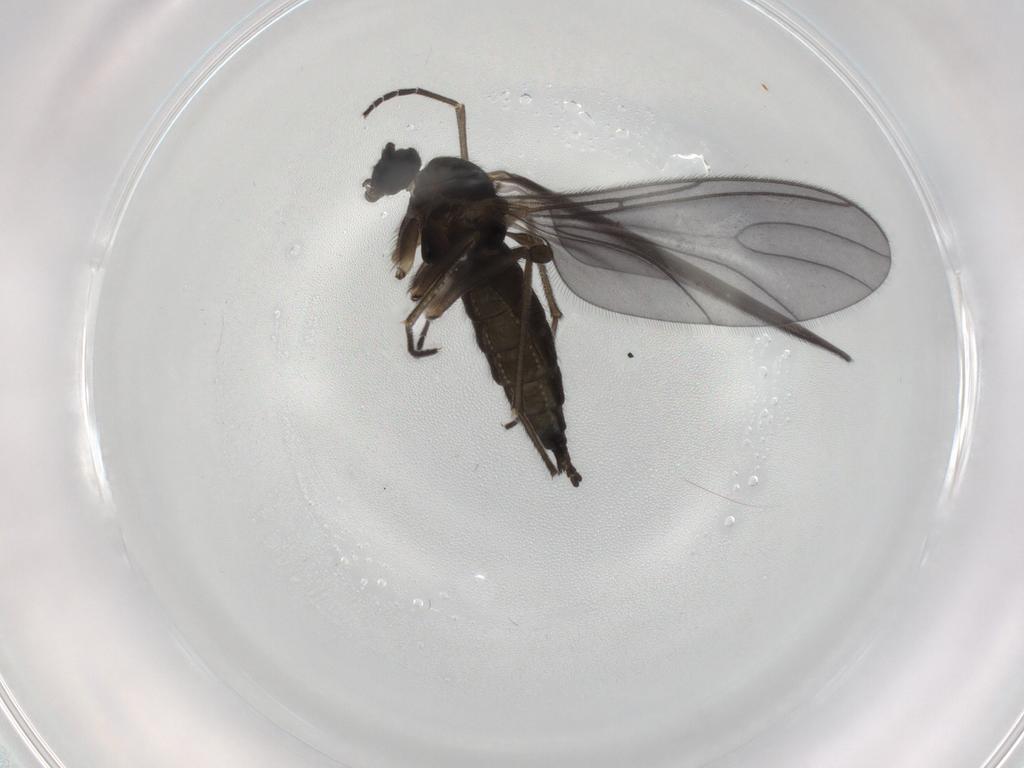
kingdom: Animalia
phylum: Arthropoda
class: Insecta
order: Diptera
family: Sciaridae
